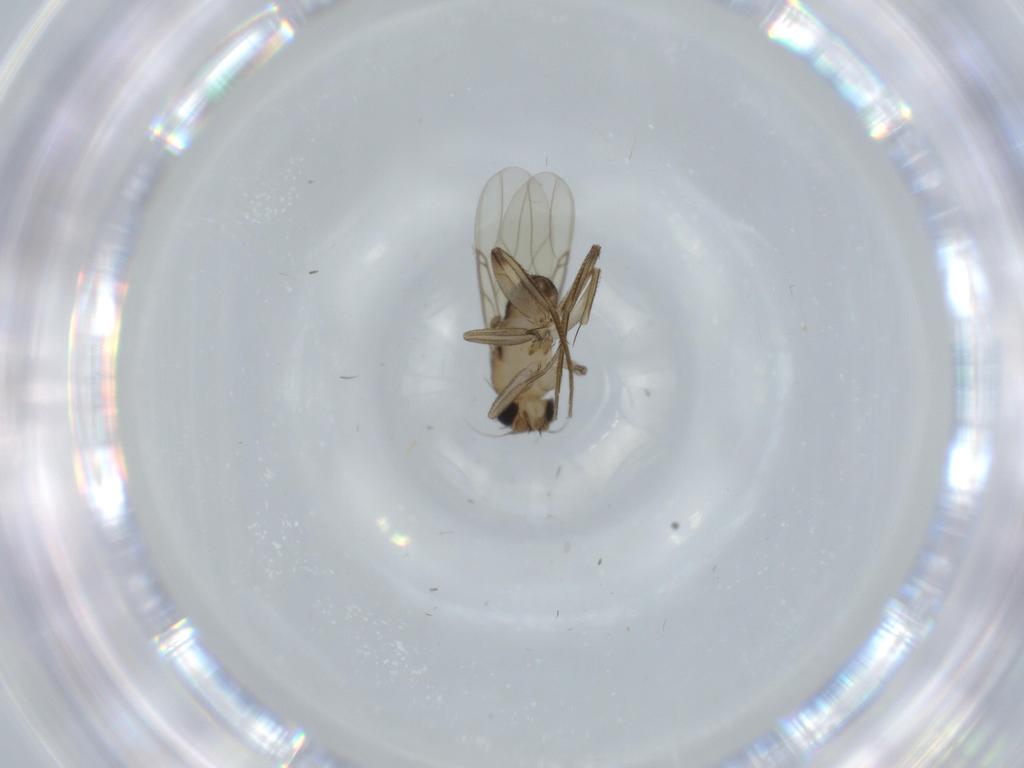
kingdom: Animalia
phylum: Arthropoda
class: Insecta
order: Diptera
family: Phoridae
